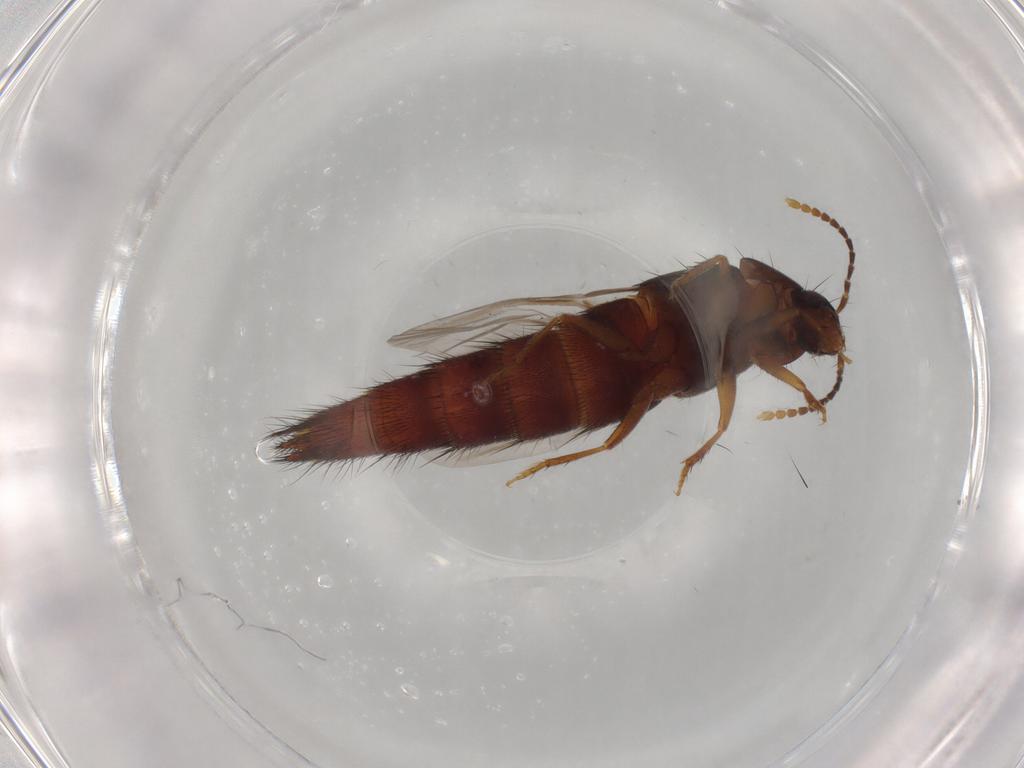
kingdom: Animalia
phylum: Arthropoda
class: Insecta
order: Coleoptera
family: Staphylinidae
